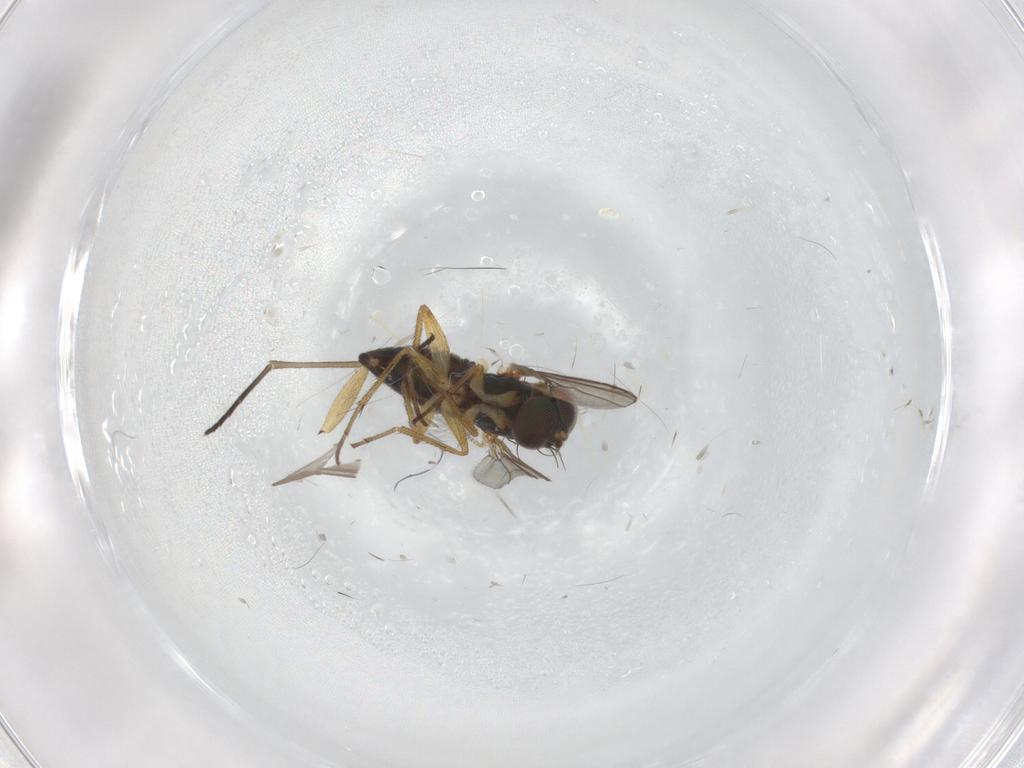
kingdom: Animalia
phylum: Arthropoda
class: Insecta
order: Diptera
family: Dolichopodidae
